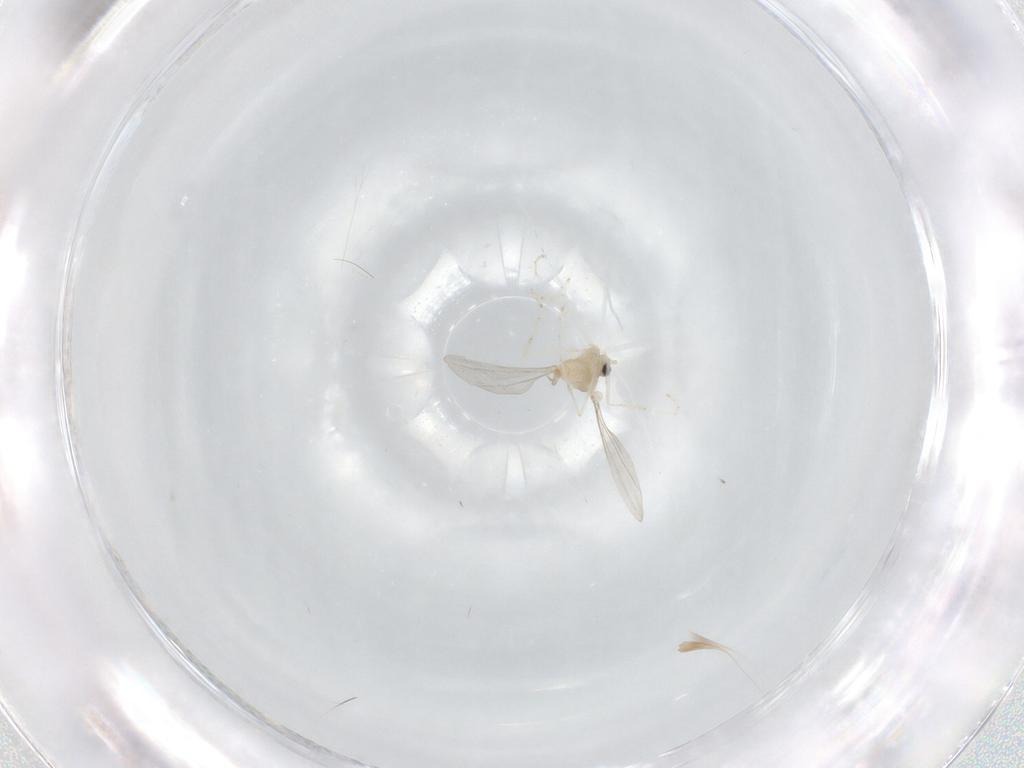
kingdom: Animalia
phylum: Arthropoda
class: Insecta
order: Diptera
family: Cecidomyiidae
